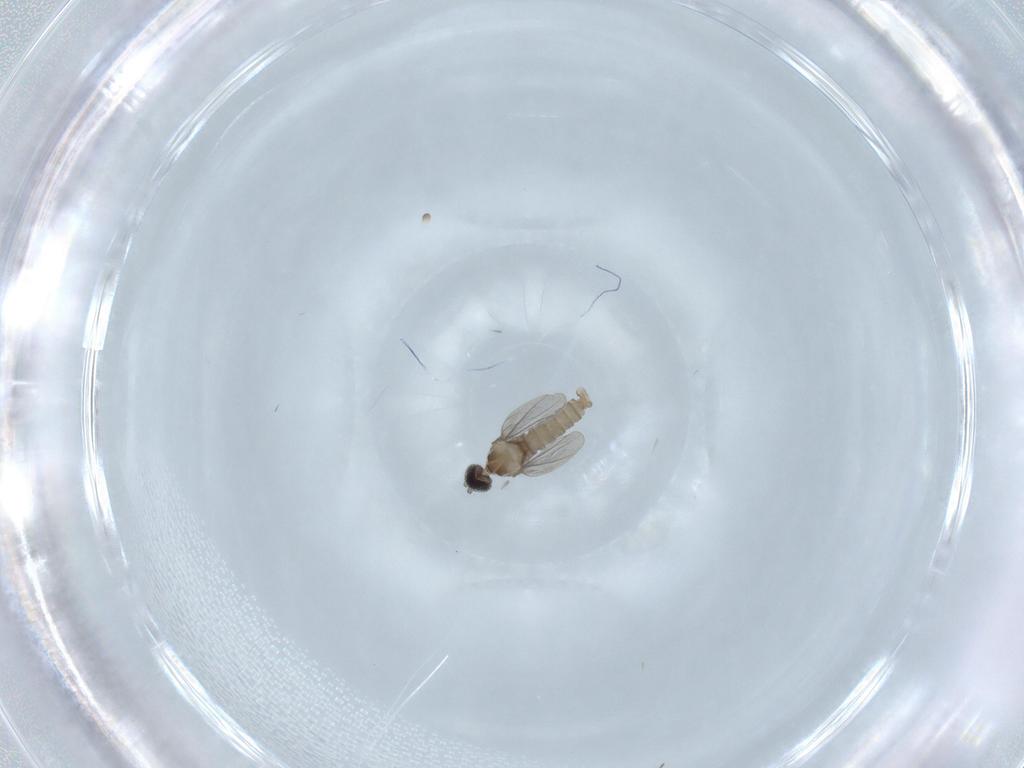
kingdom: Animalia
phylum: Arthropoda
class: Insecta
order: Diptera
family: Cecidomyiidae
